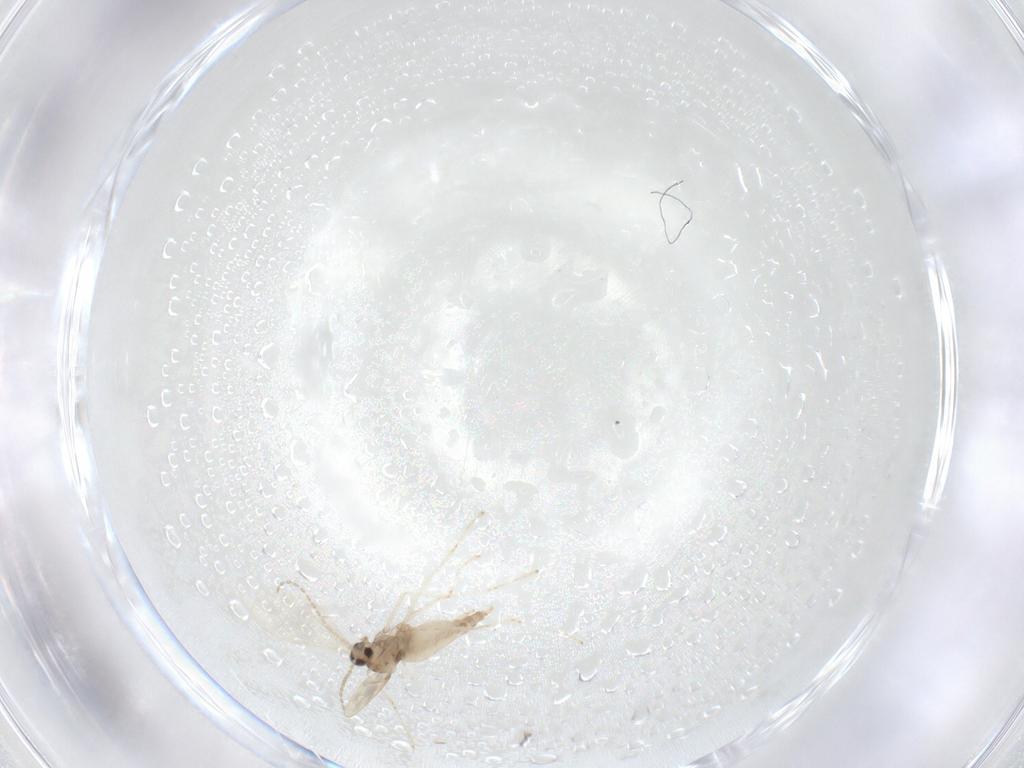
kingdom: Animalia
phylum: Arthropoda
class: Insecta
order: Diptera
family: Cecidomyiidae
